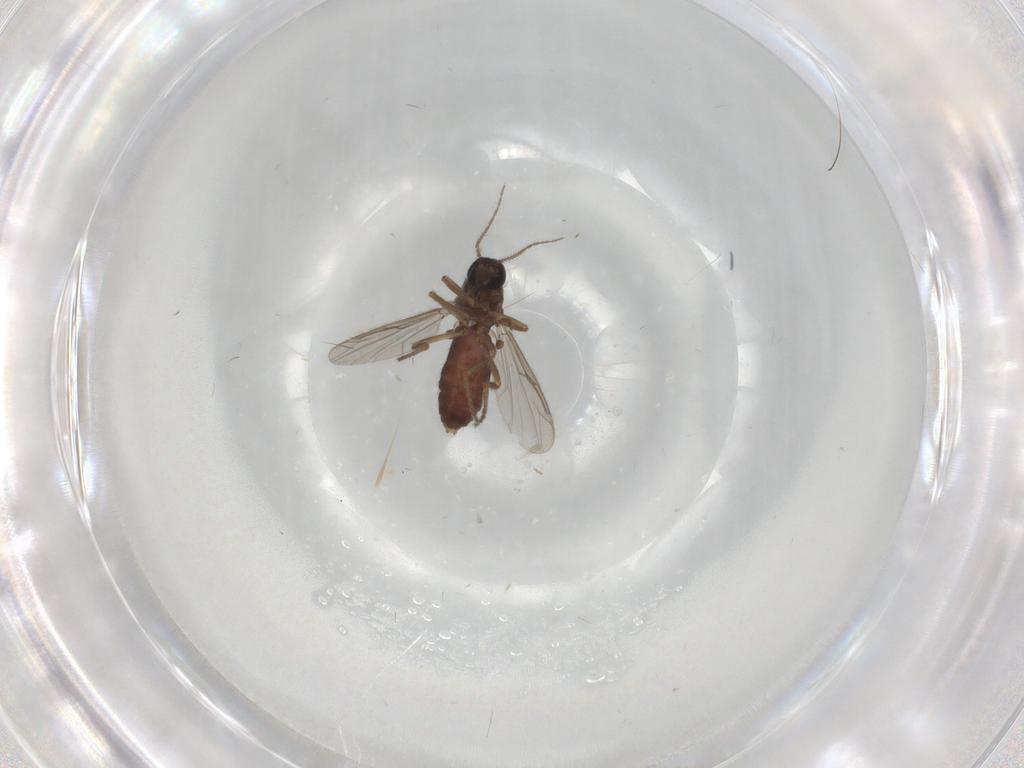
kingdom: Animalia
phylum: Arthropoda
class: Insecta
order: Diptera
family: Ceratopogonidae
